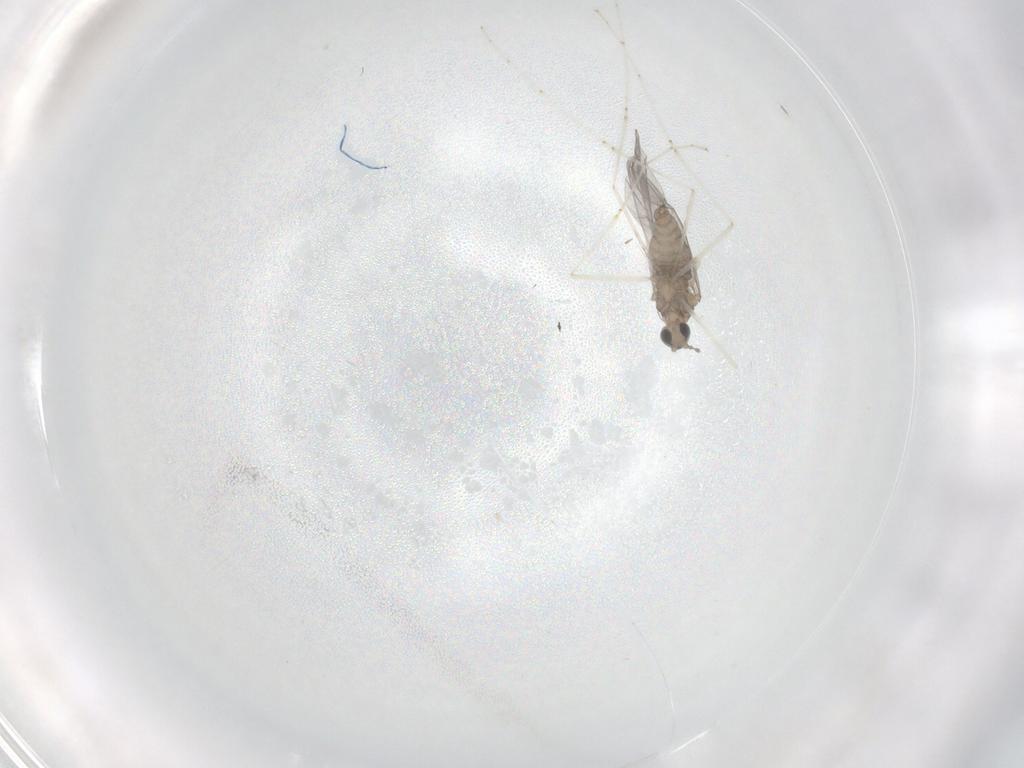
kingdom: Animalia
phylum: Arthropoda
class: Insecta
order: Diptera
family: Cecidomyiidae
